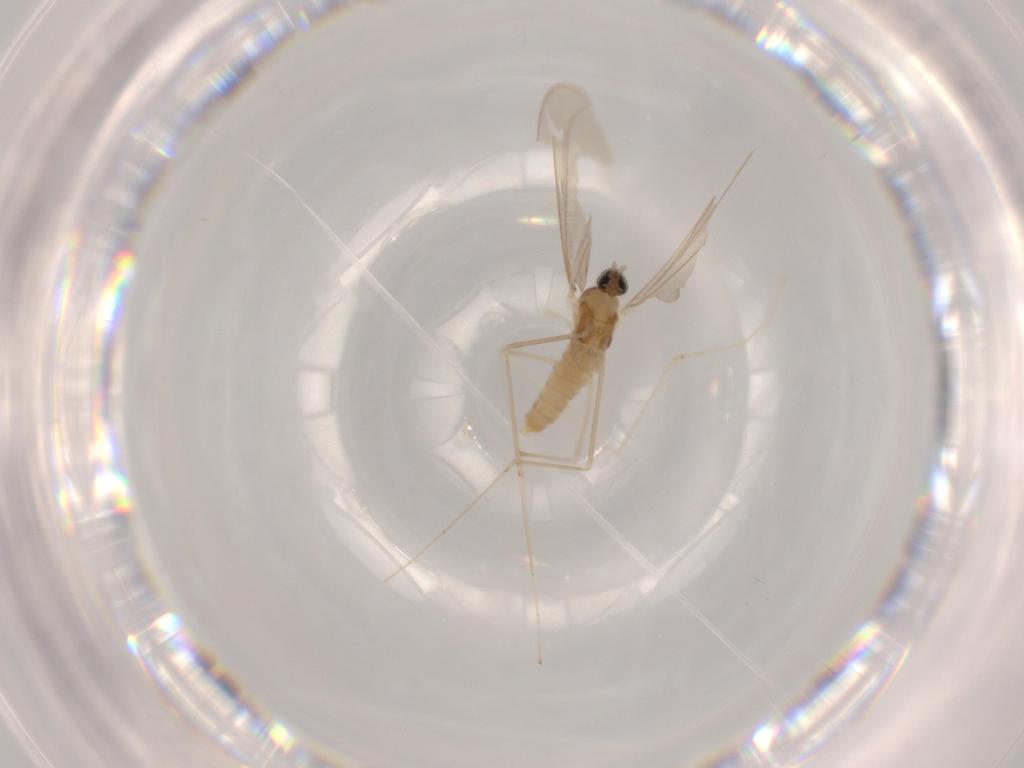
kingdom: Animalia
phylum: Arthropoda
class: Insecta
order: Diptera
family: Cecidomyiidae
